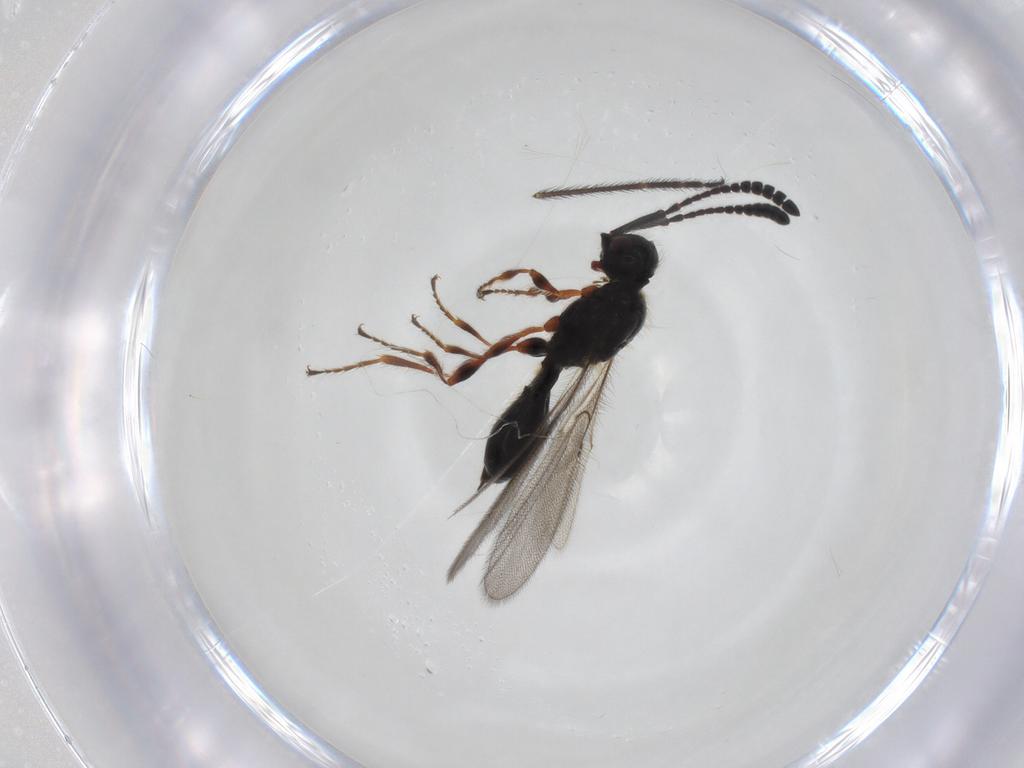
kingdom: Animalia
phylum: Arthropoda
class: Insecta
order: Hymenoptera
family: Diapriidae
